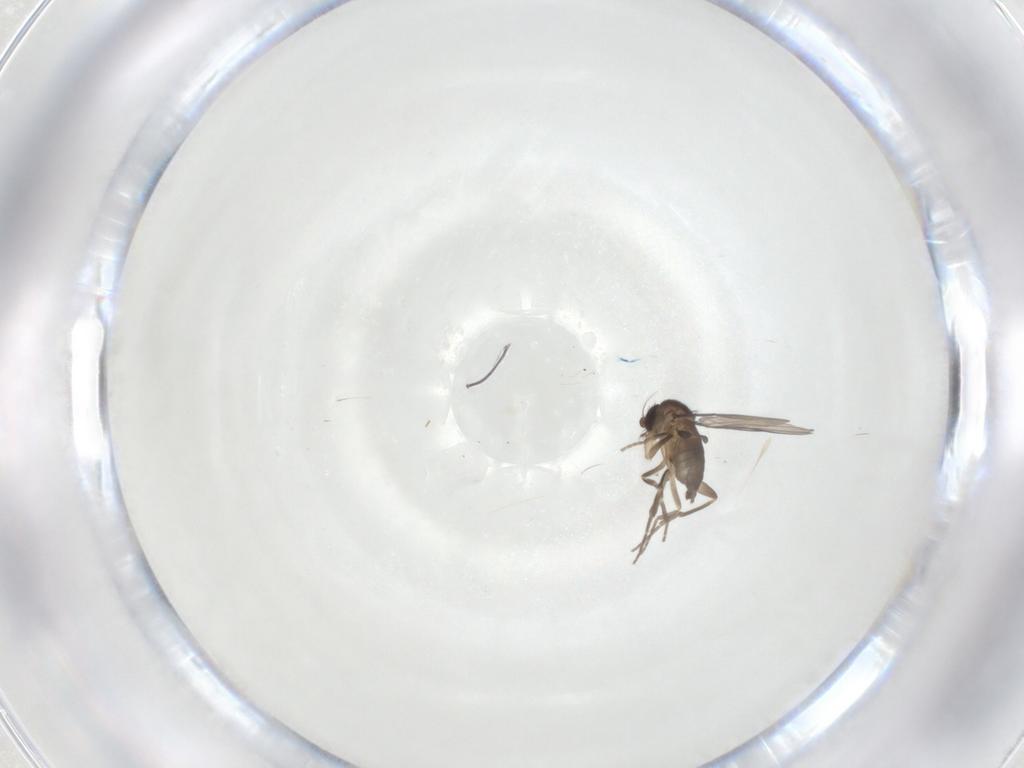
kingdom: Animalia
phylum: Arthropoda
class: Insecta
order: Diptera
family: Phoridae
